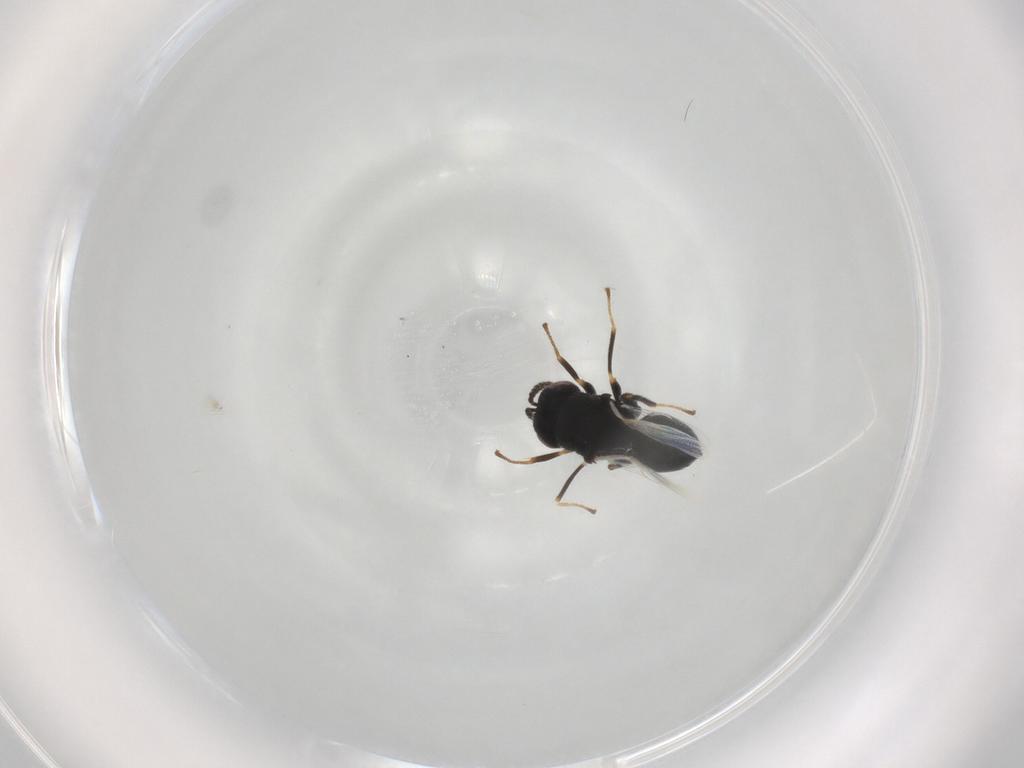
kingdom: Animalia
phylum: Arthropoda
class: Insecta
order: Hymenoptera
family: Eurytomidae
